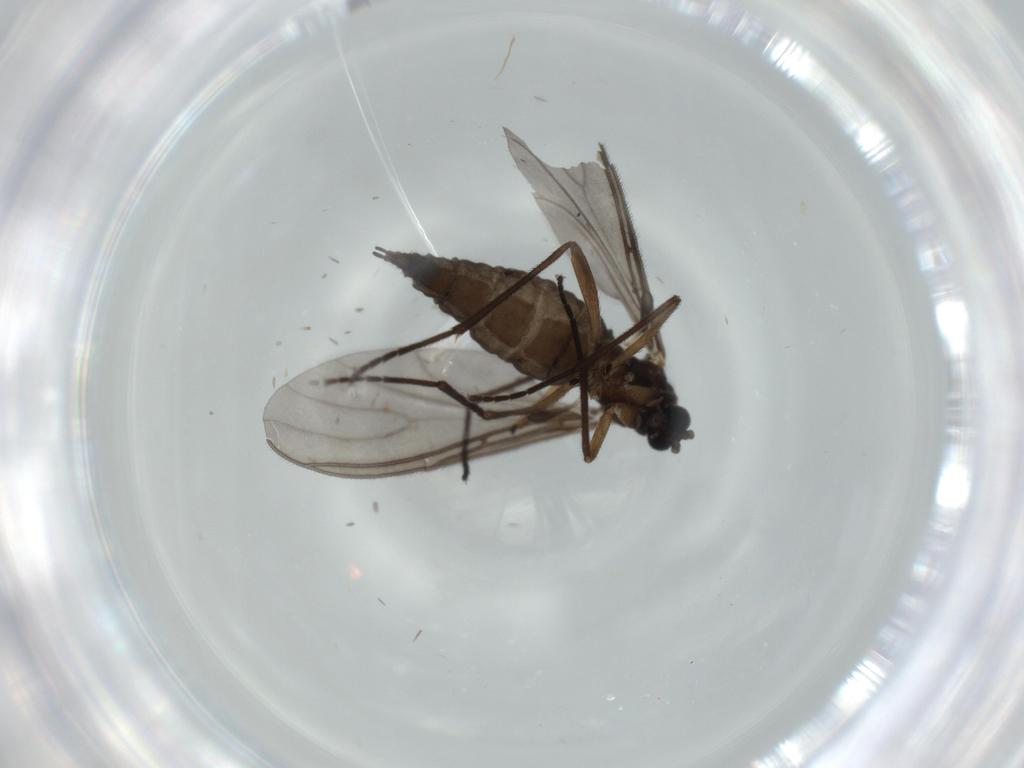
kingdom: Animalia
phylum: Arthropoda
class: Insecta
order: Diptera
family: Sciaridae
